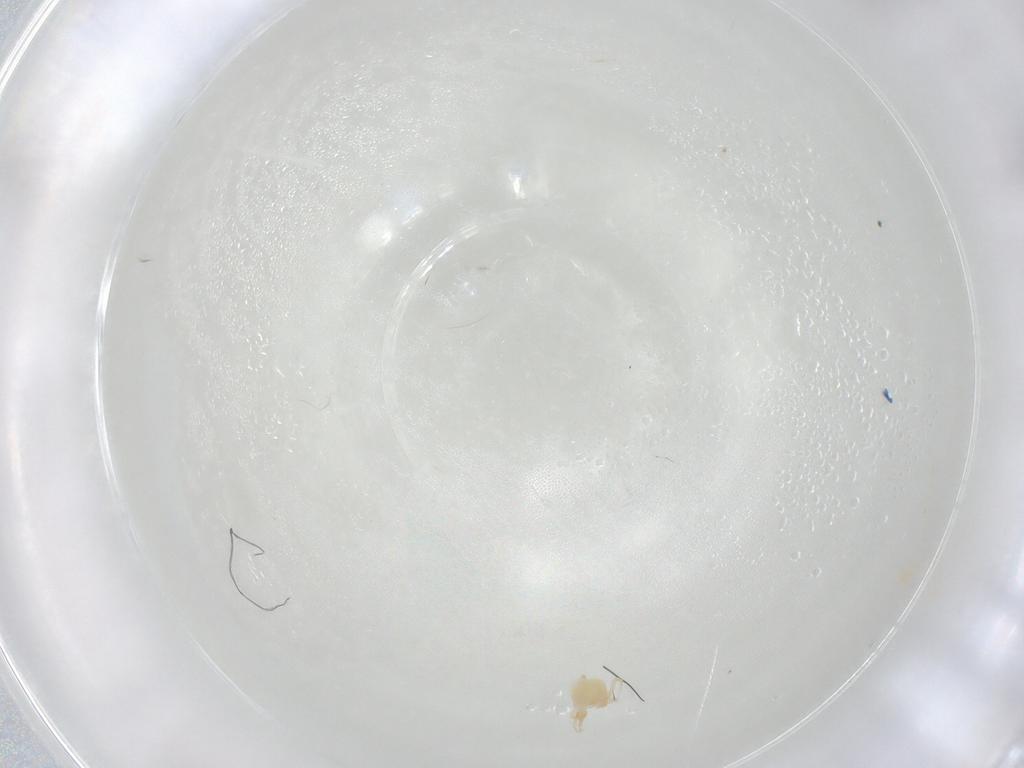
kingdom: Animalia
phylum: Arthropoda
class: Arachnida
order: Trombidiformes
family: Cunaxidae
